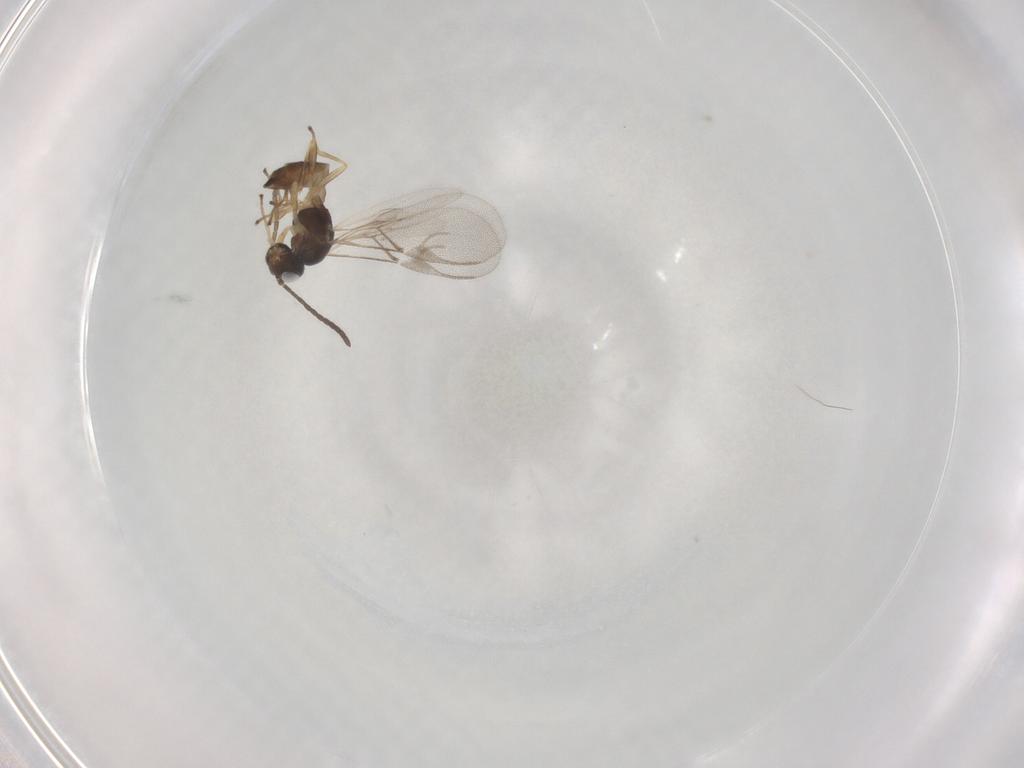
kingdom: Animalia
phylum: Arthropoda
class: Insecta
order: Hymenoptera
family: Braconidae
